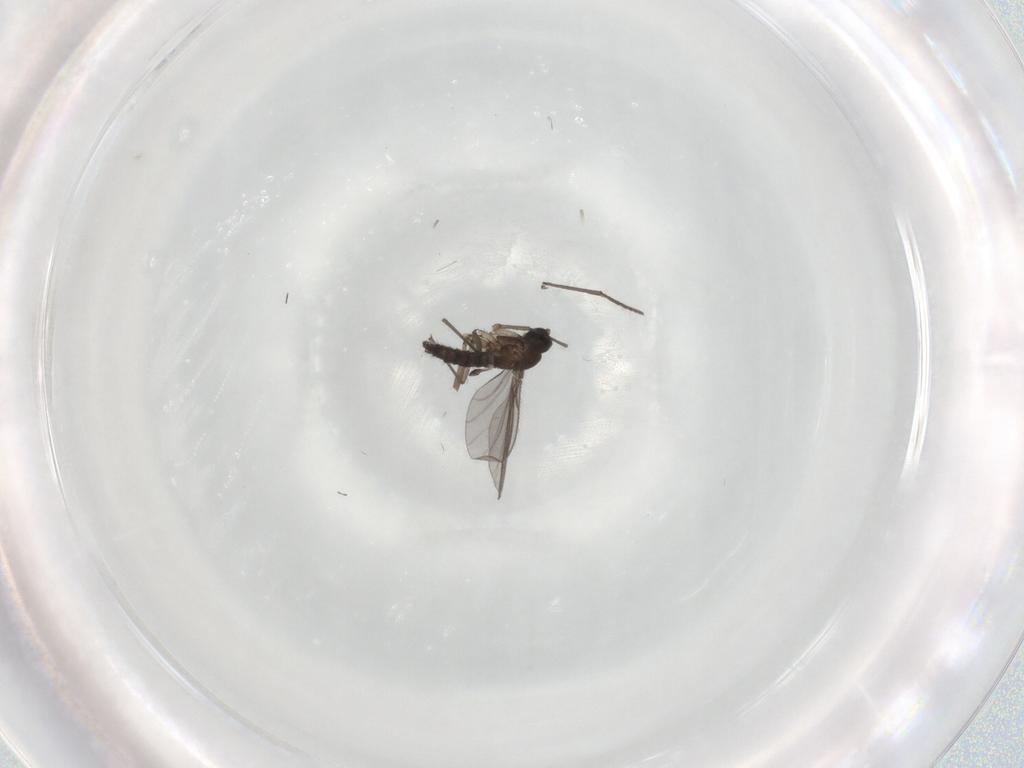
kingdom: Animalia
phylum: Arthropoda
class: Insecta
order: Diptera
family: Sciaridae
